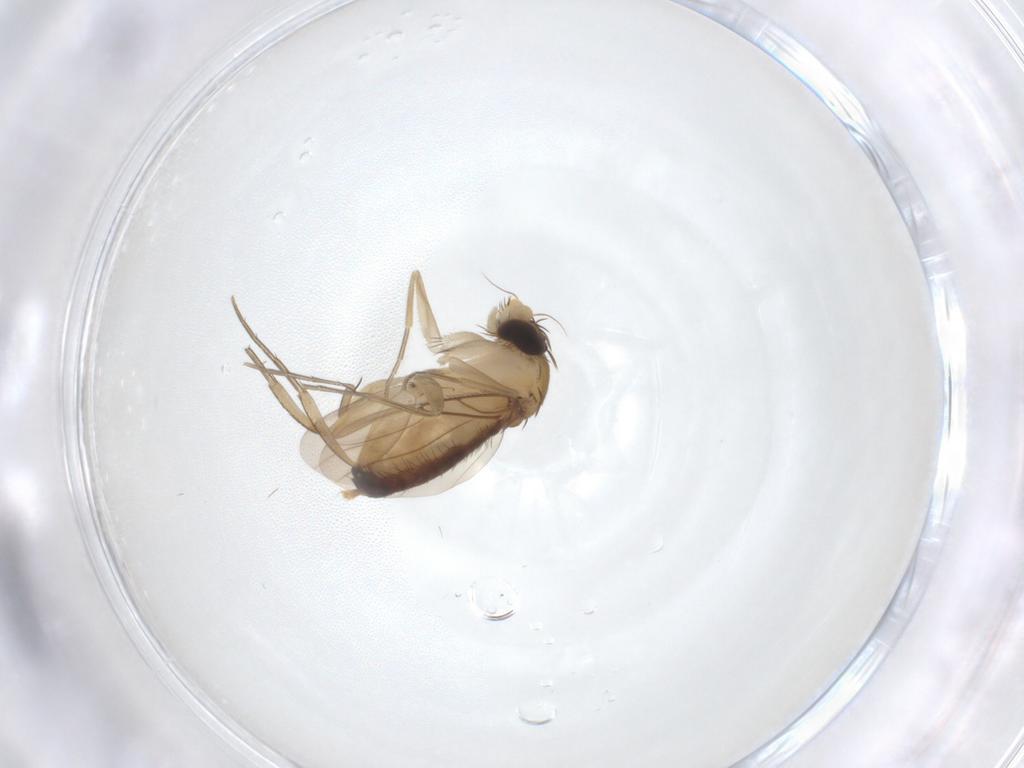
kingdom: Animalia
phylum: Arthropoda
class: Insecta
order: Diptera
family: Phoridae
